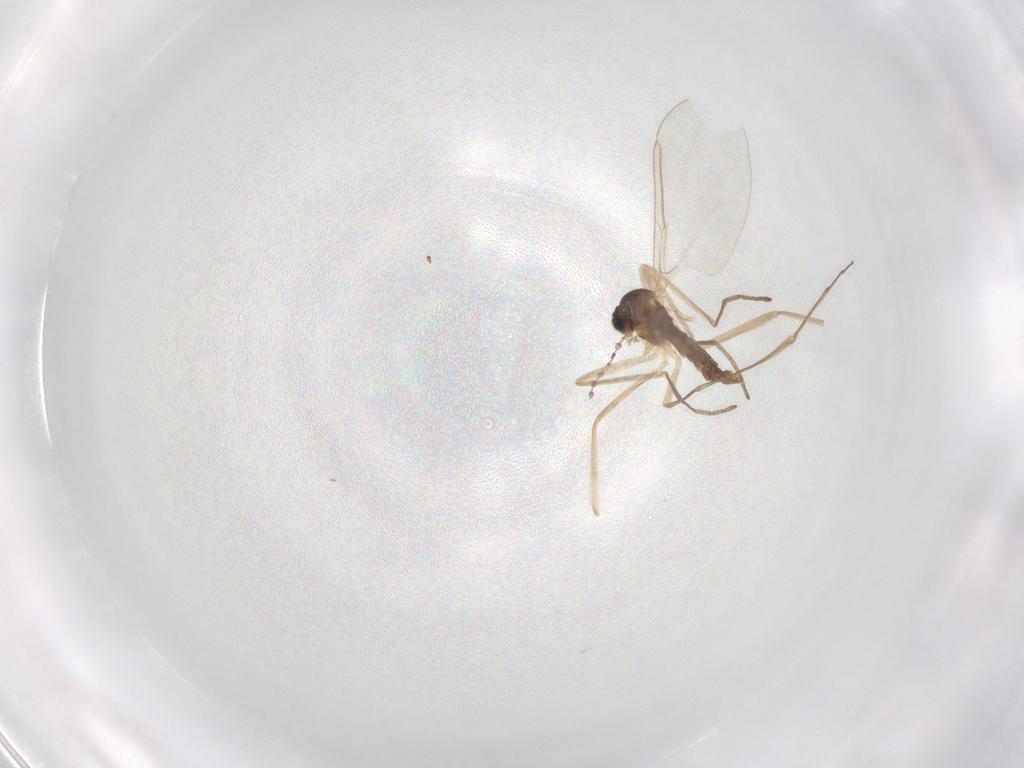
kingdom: Animalia
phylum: Arthropoda
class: Insecta
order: Diptera
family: Cecidomyiidae
